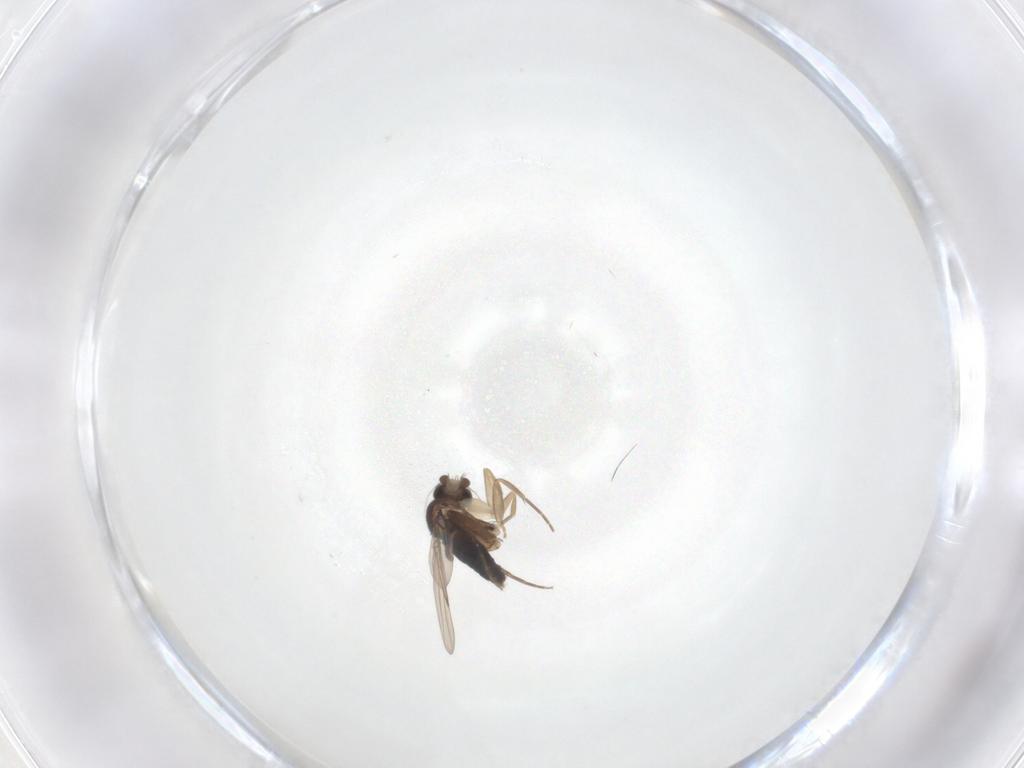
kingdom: Animalia
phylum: Arthropoda
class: Insecta
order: Diptera
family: Phoridae
